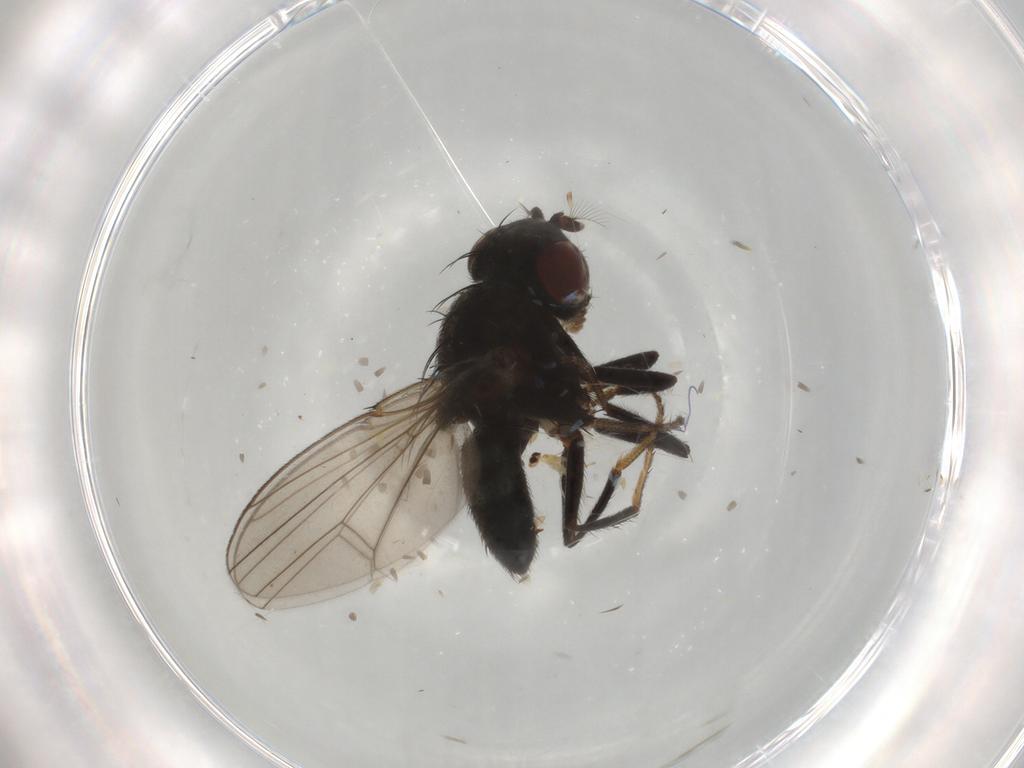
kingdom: Animalia
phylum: Arthropoda
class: Insecta
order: Diptera
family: Ephydridae
